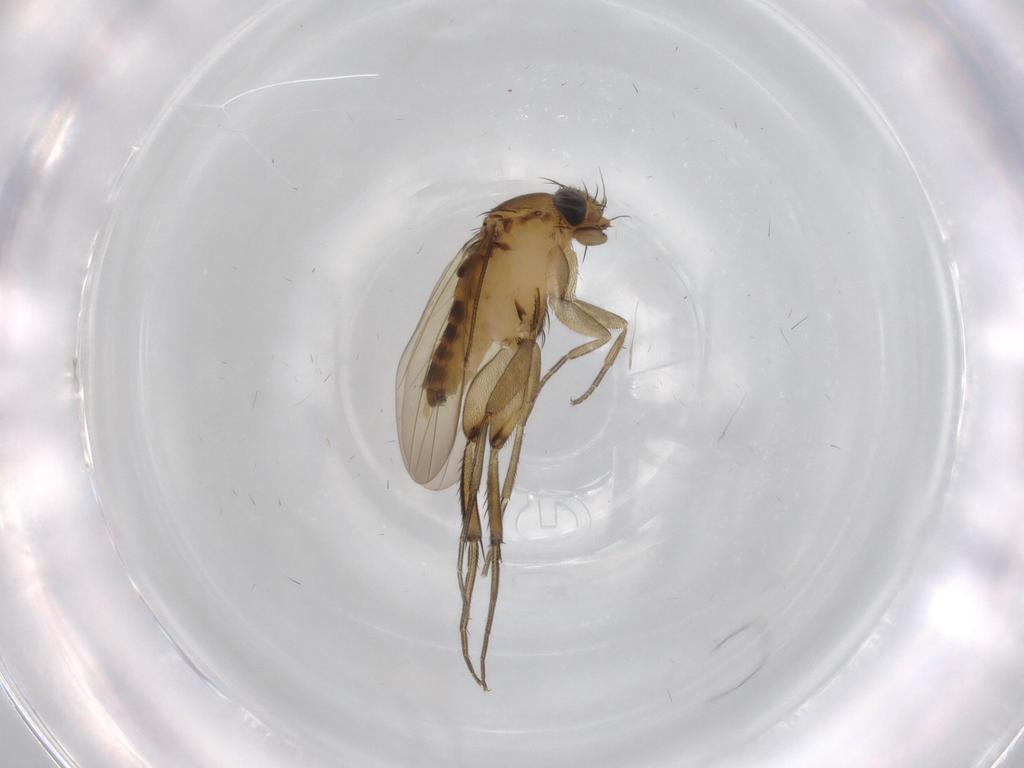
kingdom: Animalia
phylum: Arthropoda
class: Insecta
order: Diptera
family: Phoridae
